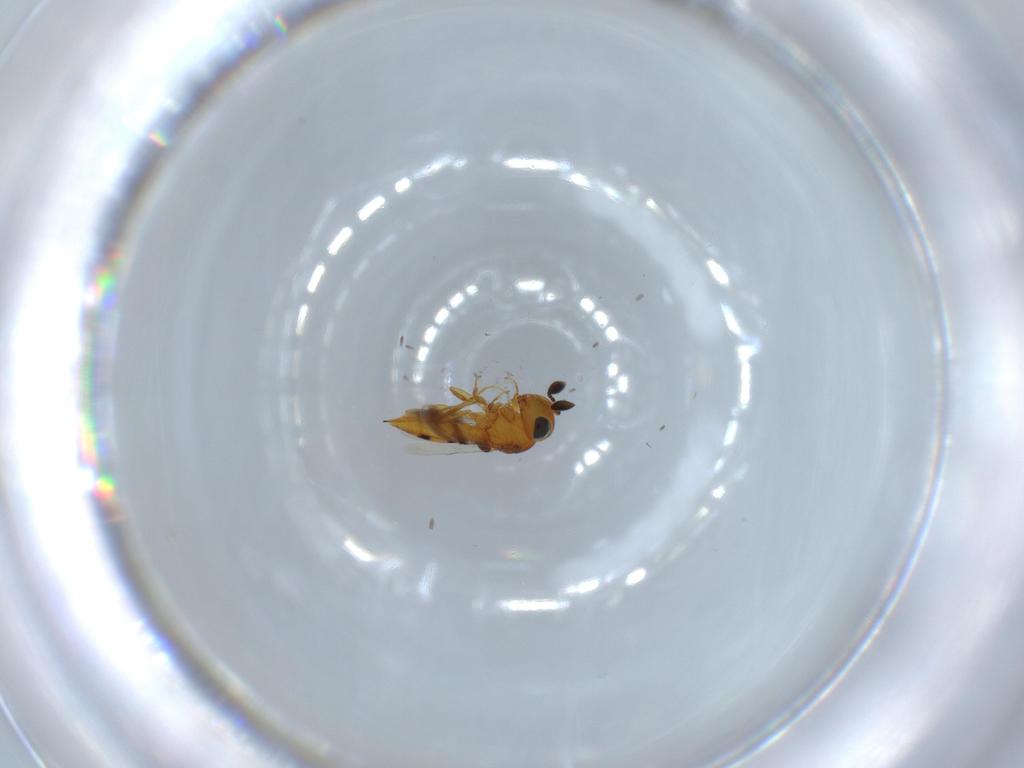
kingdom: Animalia
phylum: Arthropoda
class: Insecta
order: Hymenoptera
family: Scelionidae
